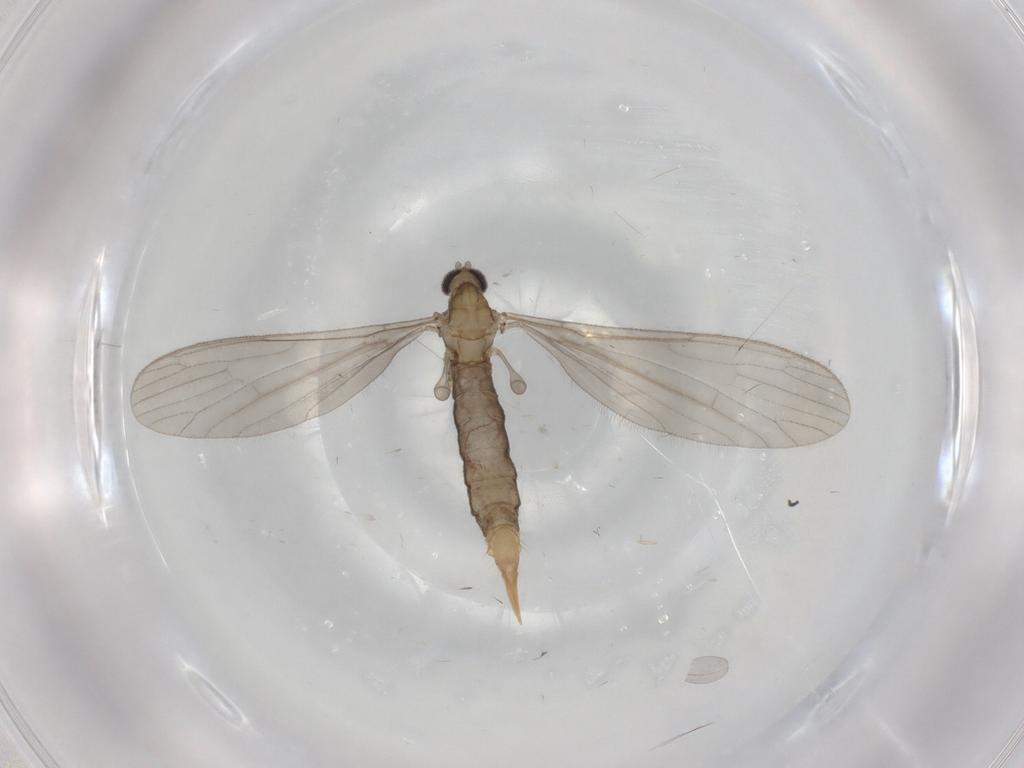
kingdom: Animalia
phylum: Arthropoda
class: Insecta
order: Diptera
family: Limoniidae
